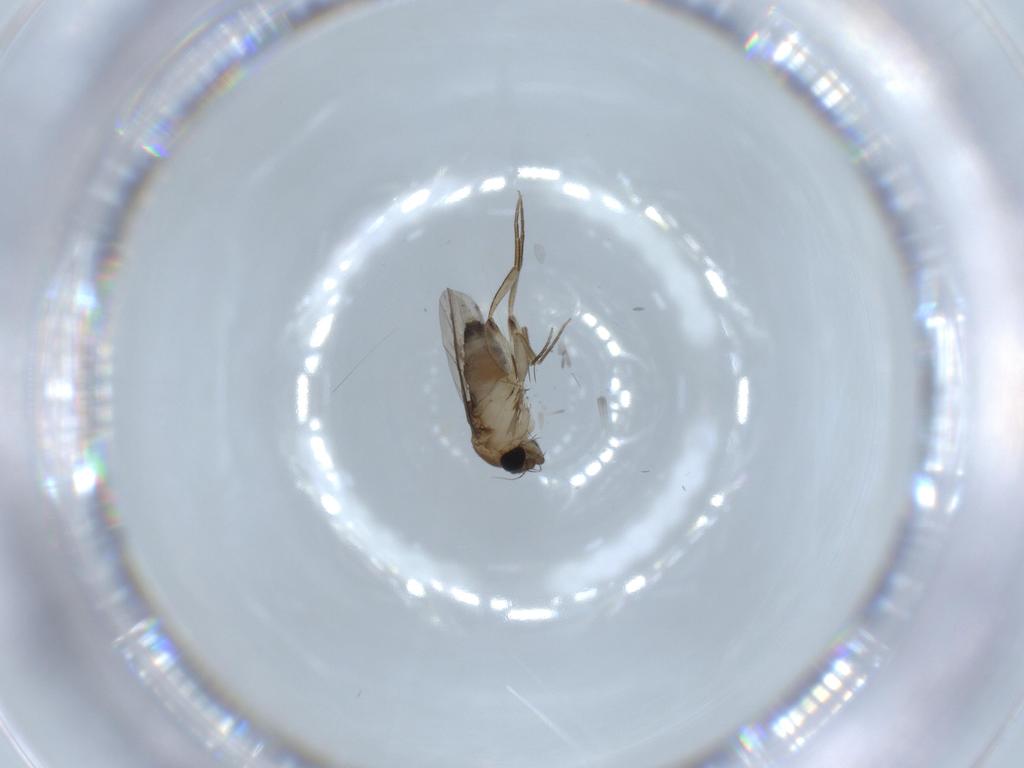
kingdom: Animalia
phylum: Arthropoda
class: Insecta
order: Diptera
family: Phoridae
